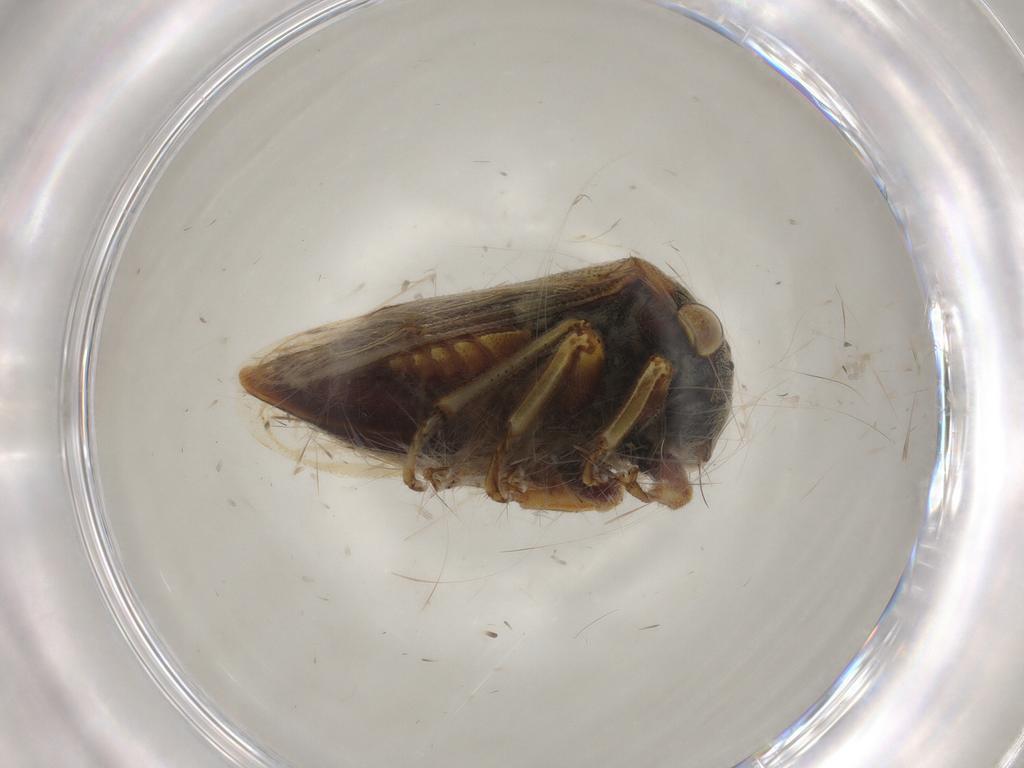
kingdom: Animalia
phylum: Arthropoda
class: Insecta
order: Hemiptera
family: Membracidae
